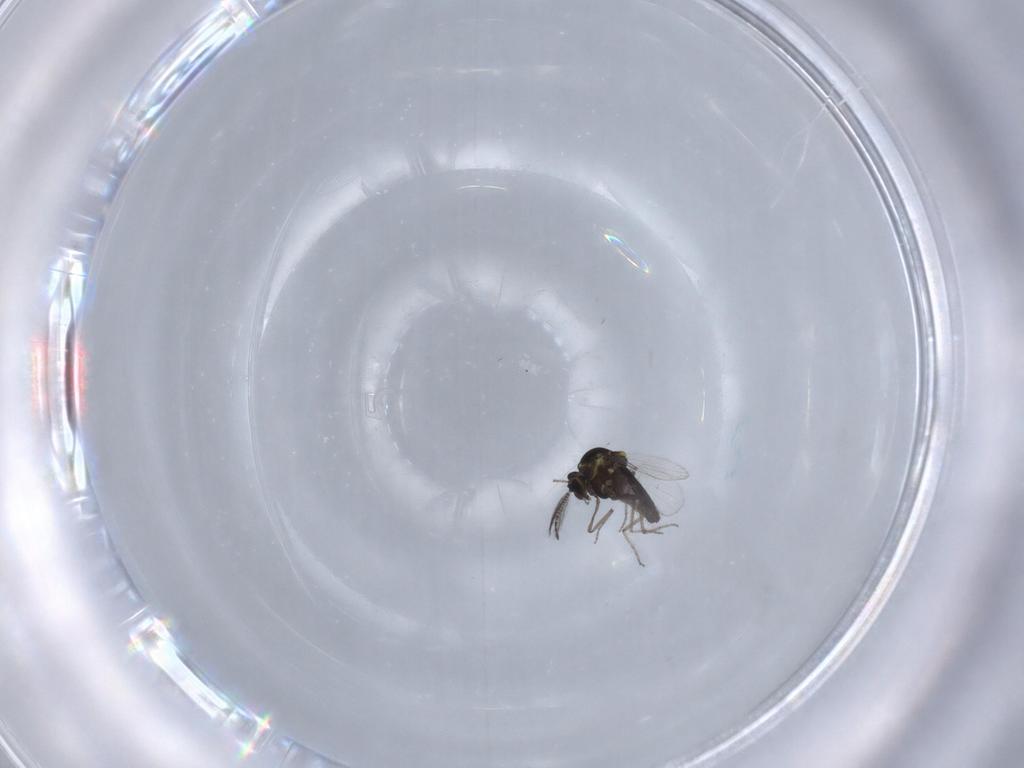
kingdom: Animalia
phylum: Arthropoda
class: Insecta
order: Diptera
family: Ceratopogonidae
